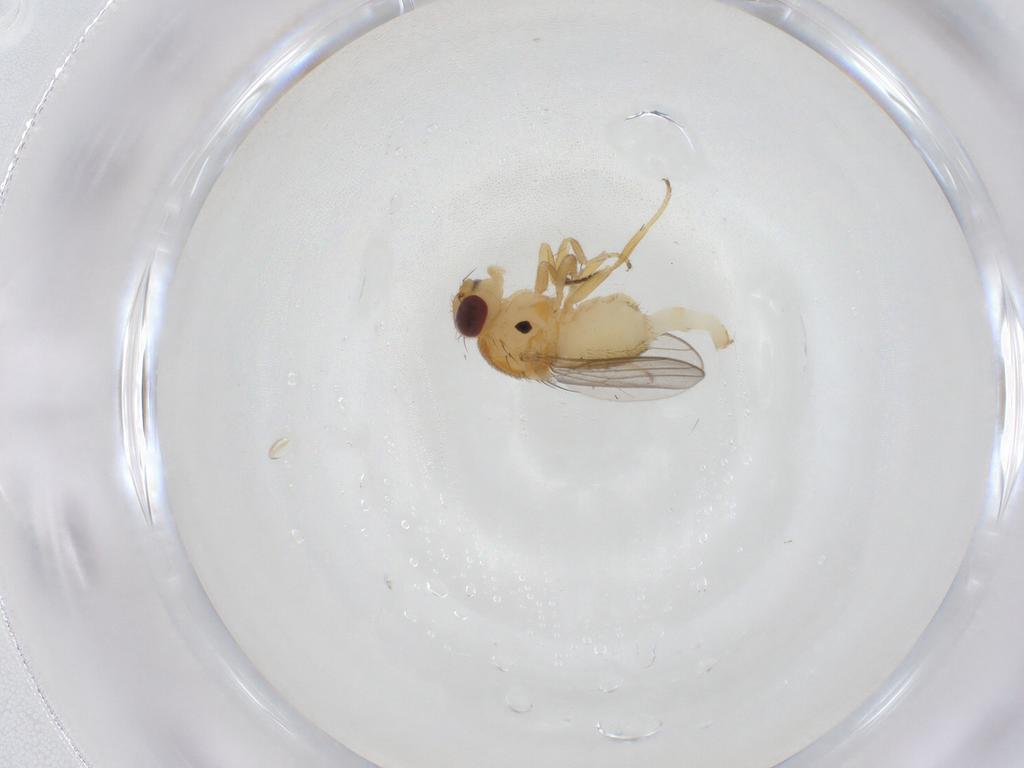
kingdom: Animalia
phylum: Arthropoda
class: Insecta
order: Diptera
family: Chloropidae
